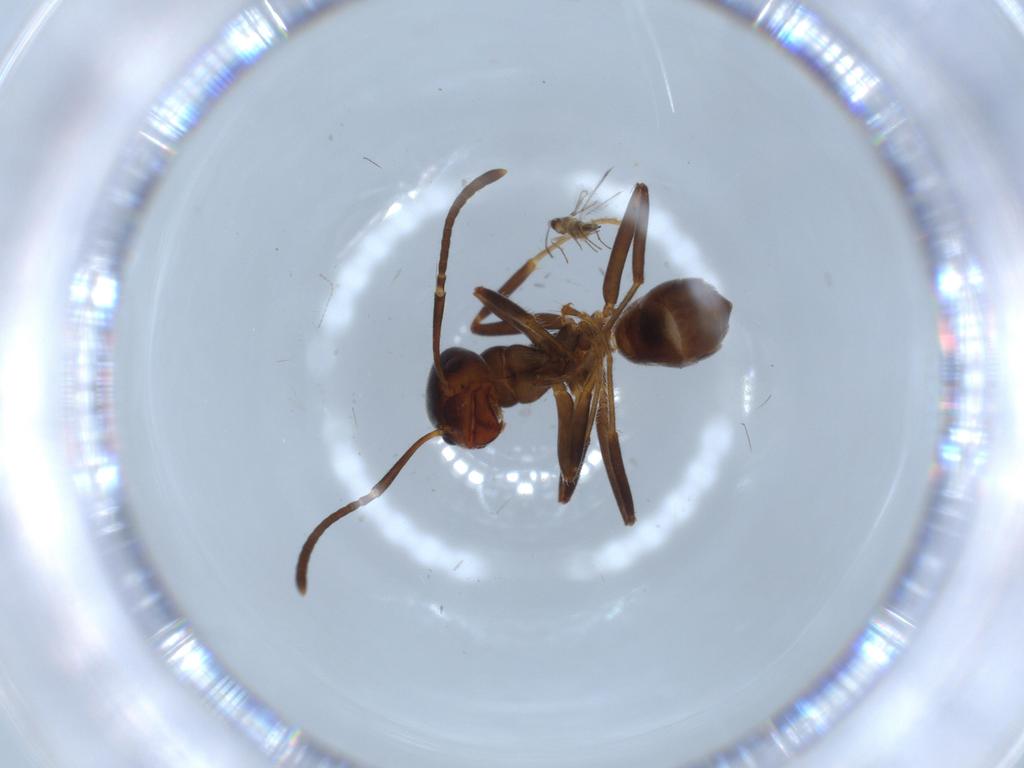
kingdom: Animalia
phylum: Arthropoda
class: Insecta
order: Hymenoptera
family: Formicidae
